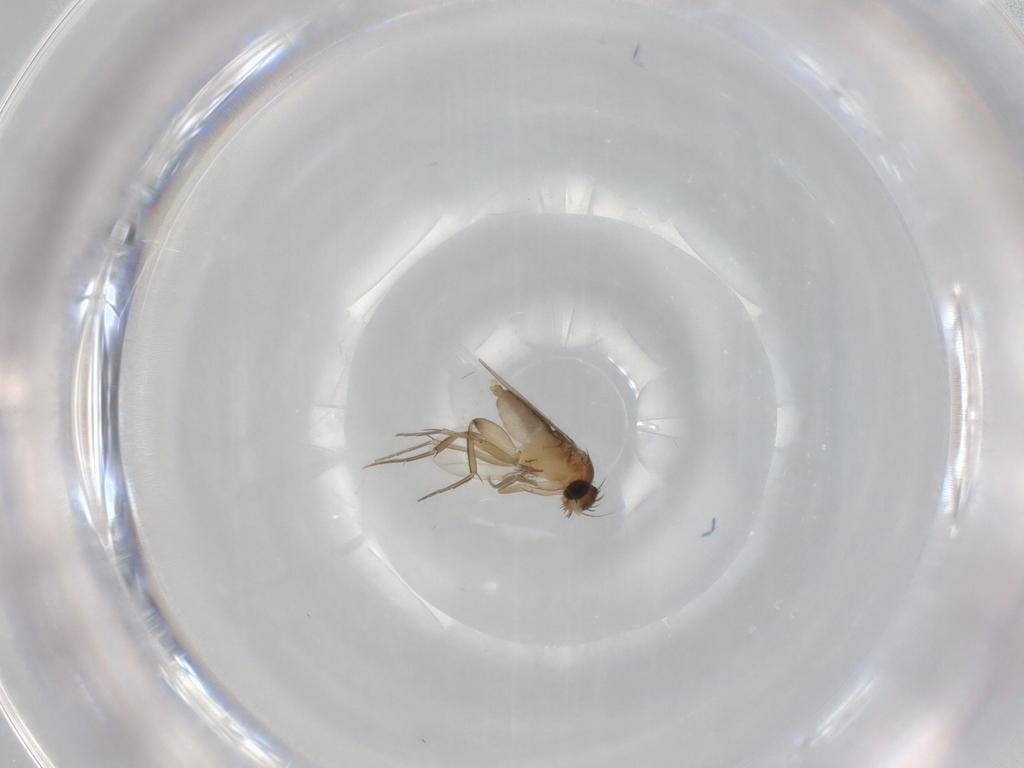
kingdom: Animalia
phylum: Arthropoda
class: Insecta
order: Diptera
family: Phoridae
